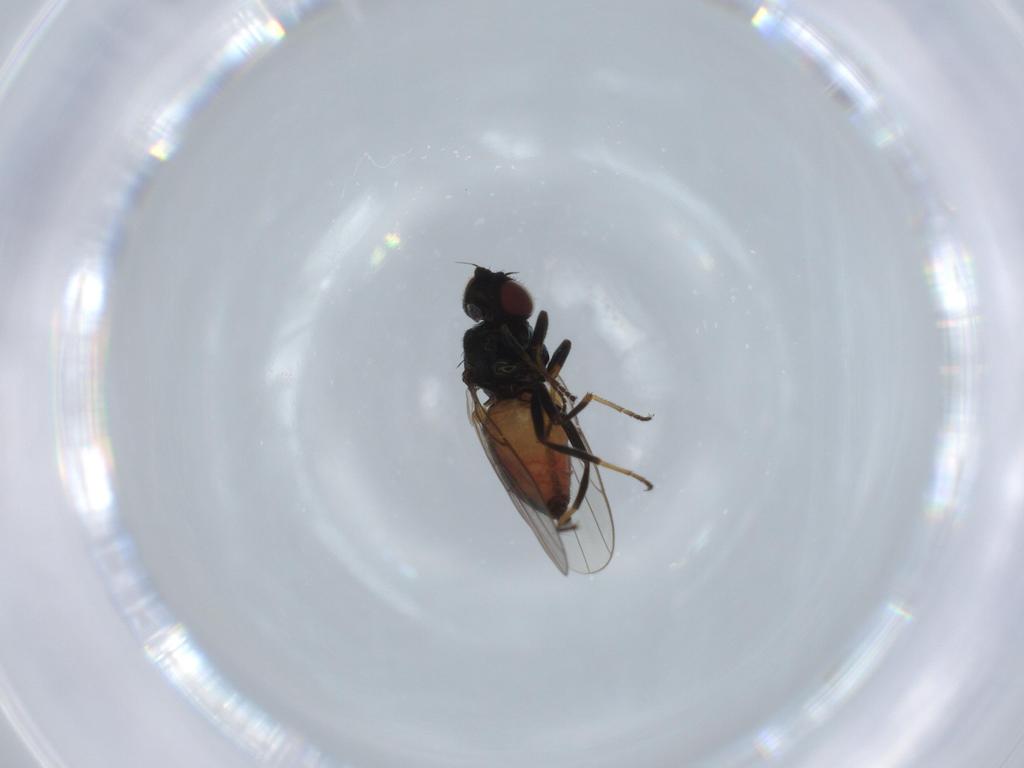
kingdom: Animalia
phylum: Arthropoda
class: Insecta
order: Diptera
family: Chloropidae
